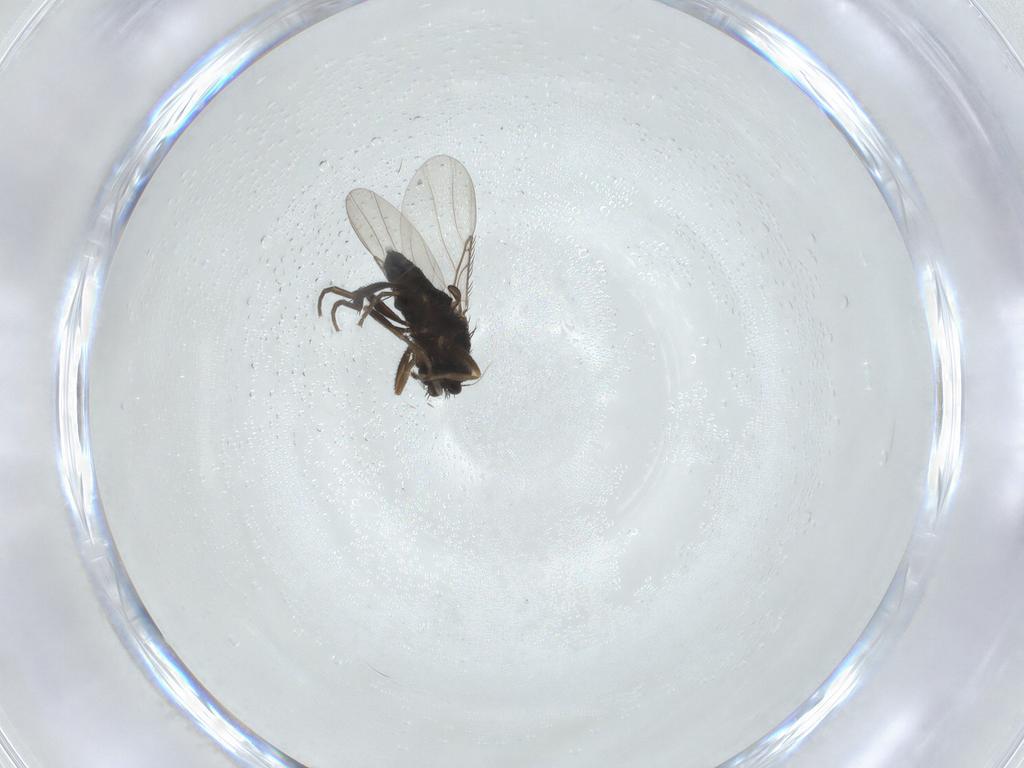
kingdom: Animalia
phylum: Arthropoda
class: Insecta
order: Diptera
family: Phoridae
